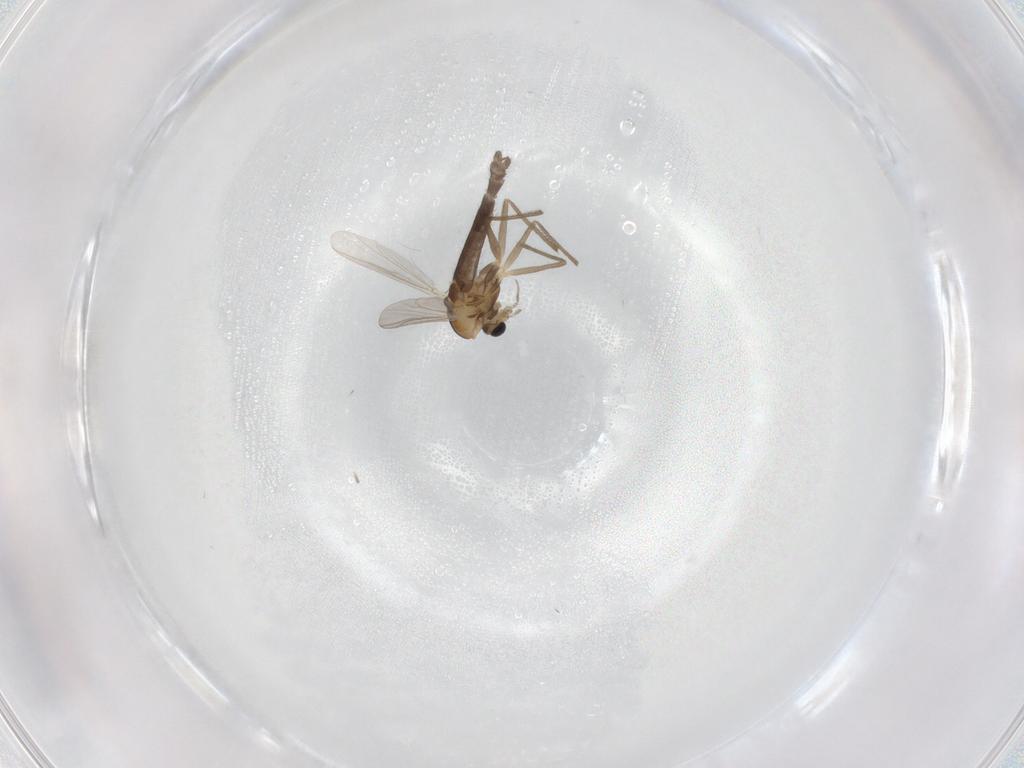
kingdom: Animalia
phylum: Arthropoda
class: Insecta
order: Diptera
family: Chironomidae
